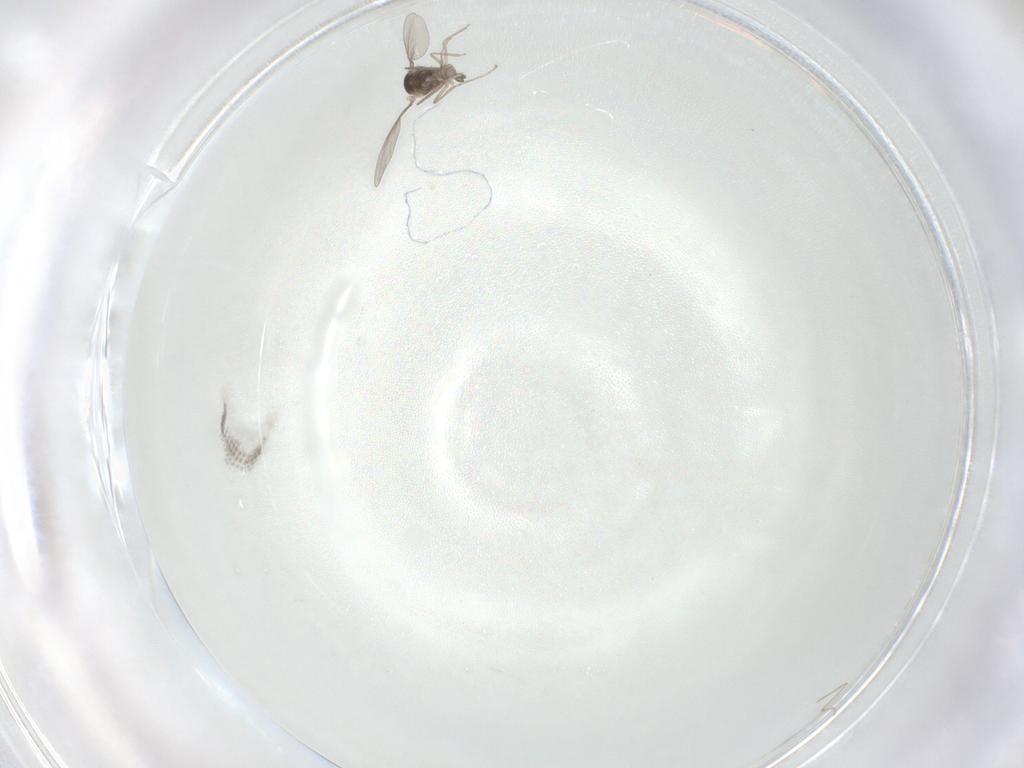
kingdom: Animalia
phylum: Arthropoda
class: Insecta
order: Diptera
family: Cecidomyiidae
